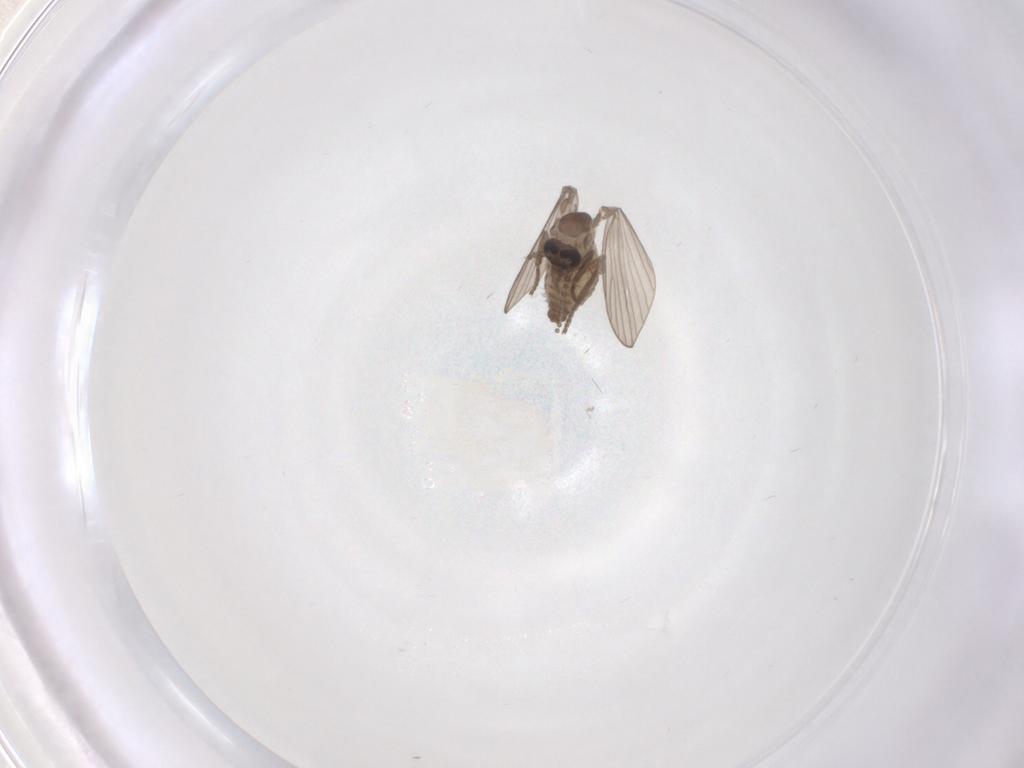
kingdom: Animalia
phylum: Arthropoda
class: Insecta
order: Diptera
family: Psychodidae
